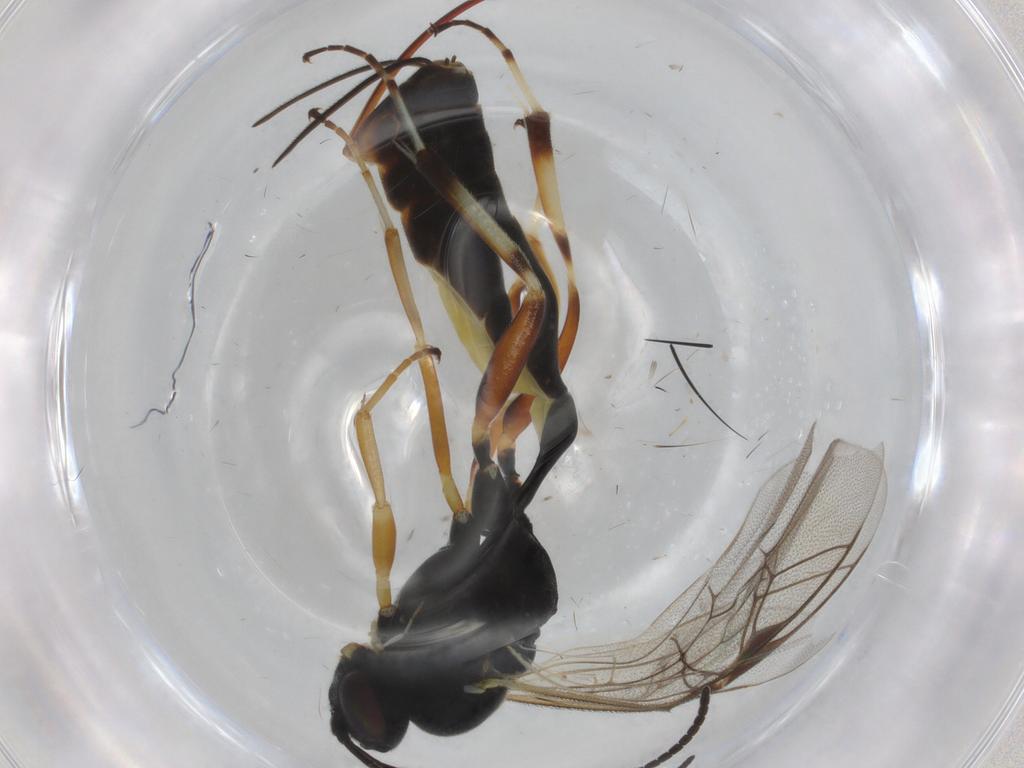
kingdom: Animalia
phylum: Arthropoda
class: Insecta
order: Hymenoptera
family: Ichneumonidae
